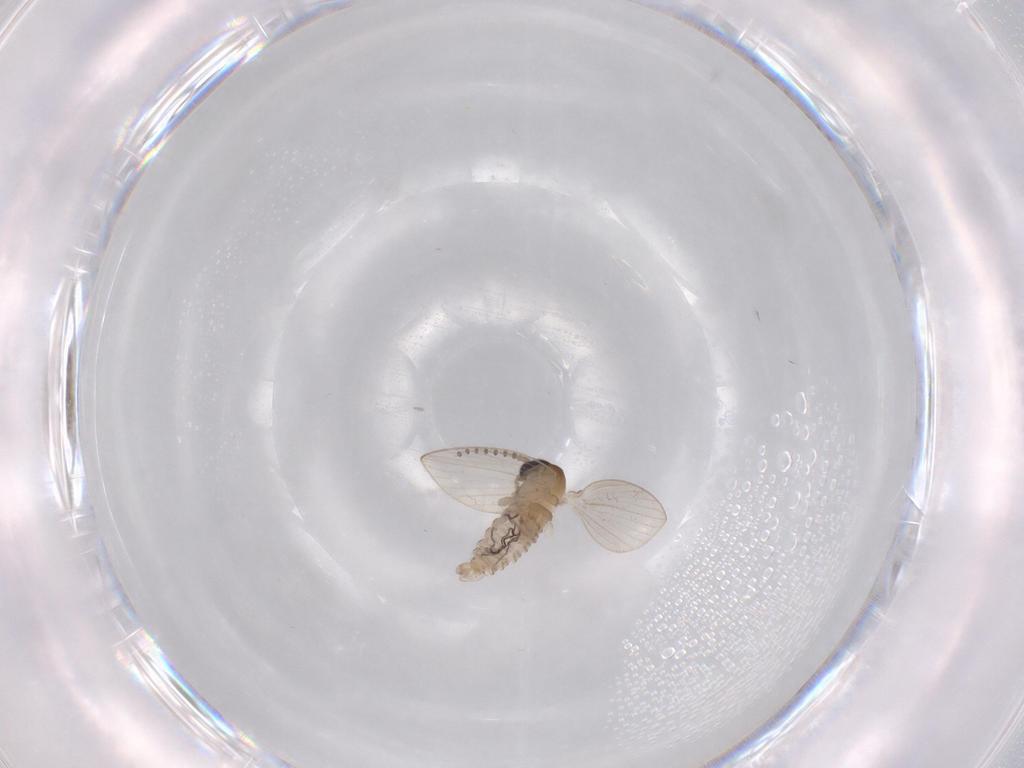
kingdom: Animalia
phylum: Arthropoda
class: Insecta
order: Diptera
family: Psychodidae
